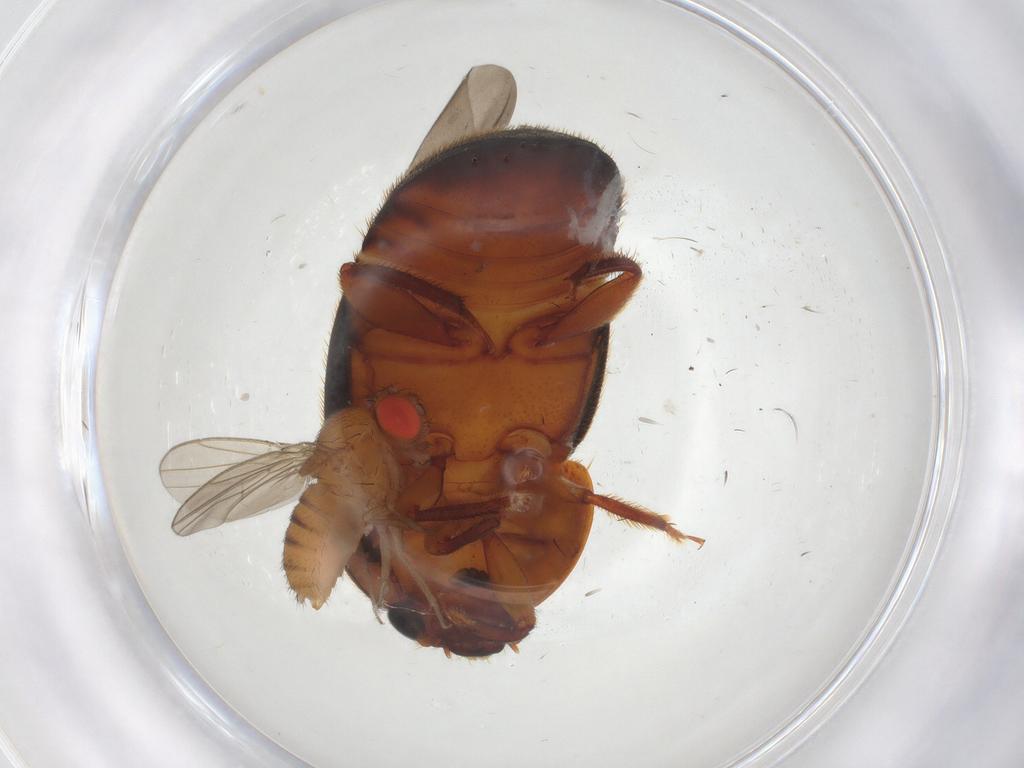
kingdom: Animalia
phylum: Arthropoda
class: Insecta
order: Diptera
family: Drosophilidae
